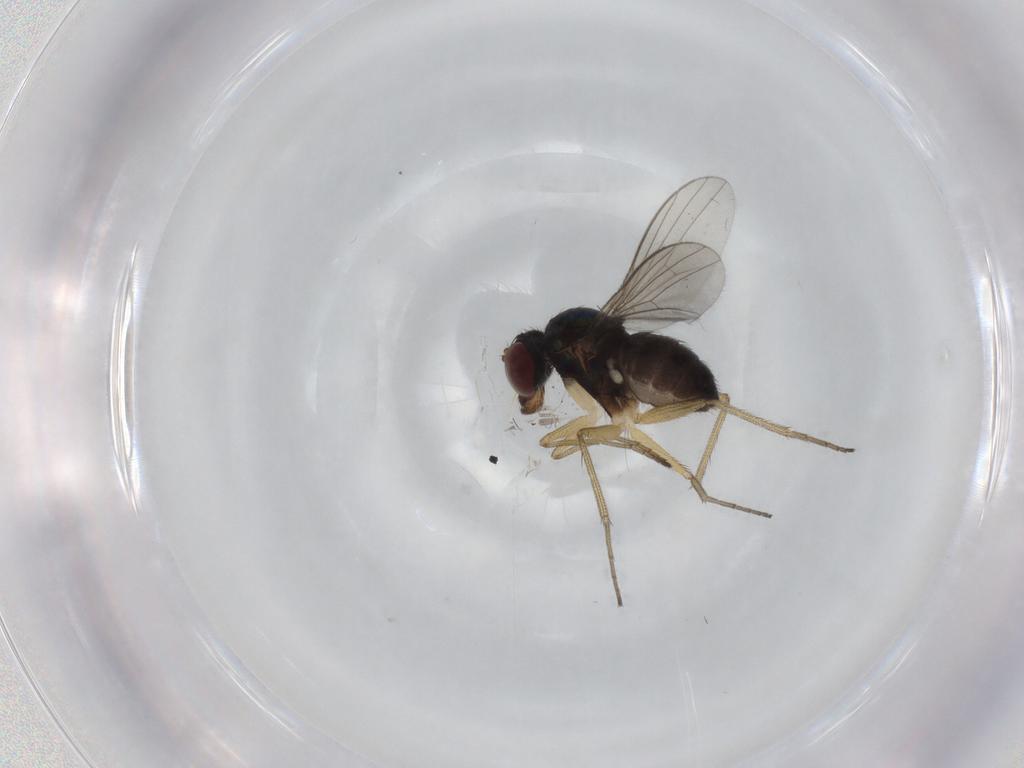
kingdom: Animalia
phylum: Arthropoda
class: Insecta
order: Diptera
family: Dolichopodidae
